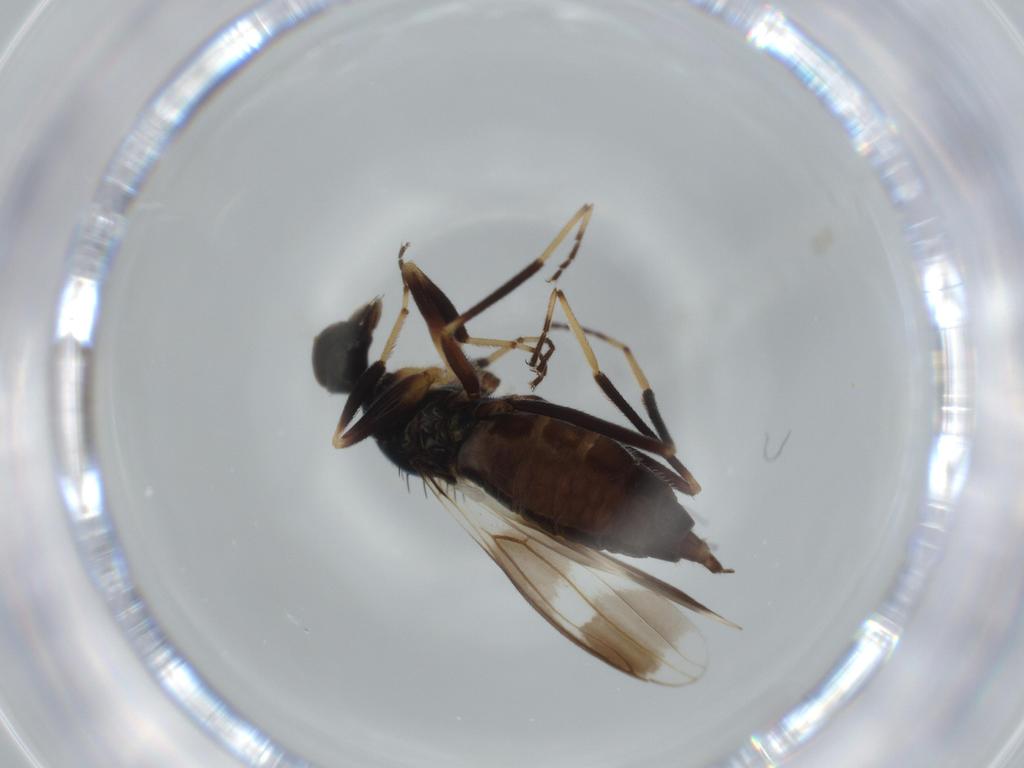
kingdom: Animalia
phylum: Arthropoda
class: Insecta
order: Diptera
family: Hybotidae
